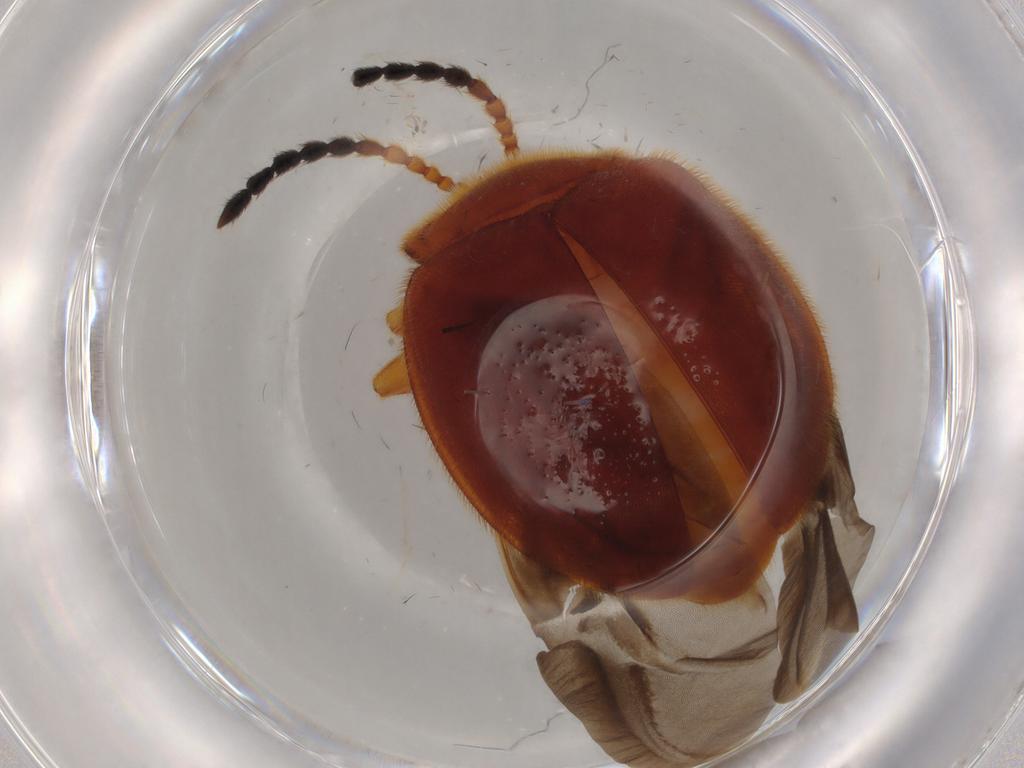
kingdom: Animalia
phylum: Arthropoda
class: Insecta
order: Coleoptera
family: Endomychidae
